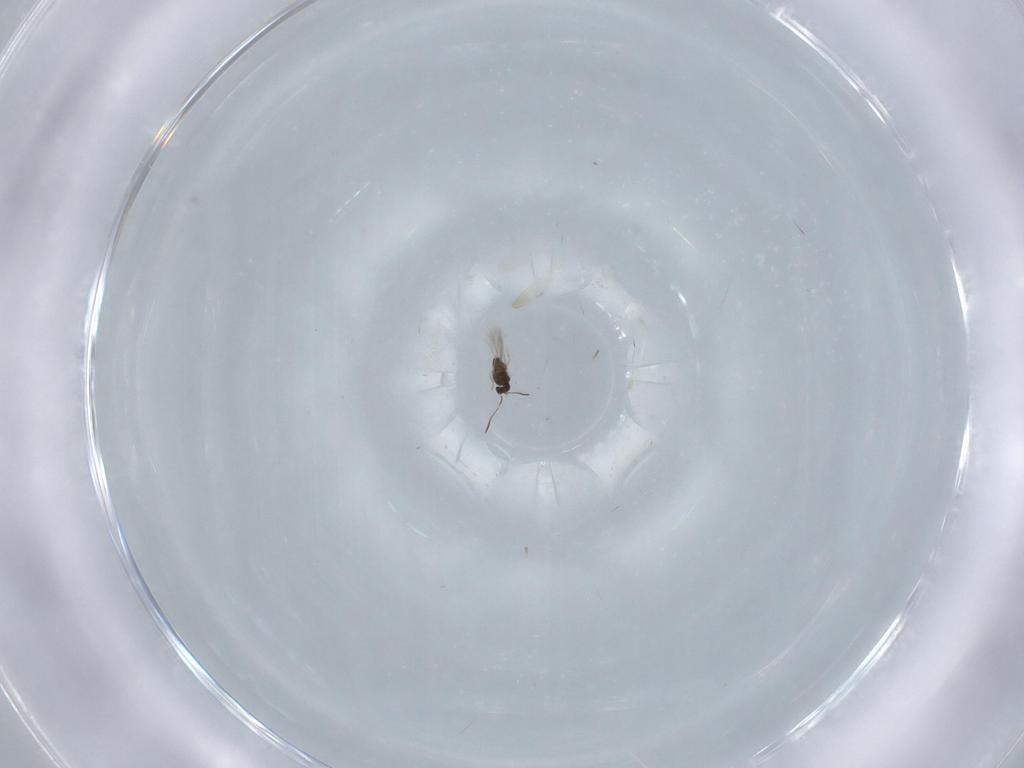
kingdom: Animalia
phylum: Arthropoda
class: Insecta
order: Hymenoptera
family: Mymaridae
